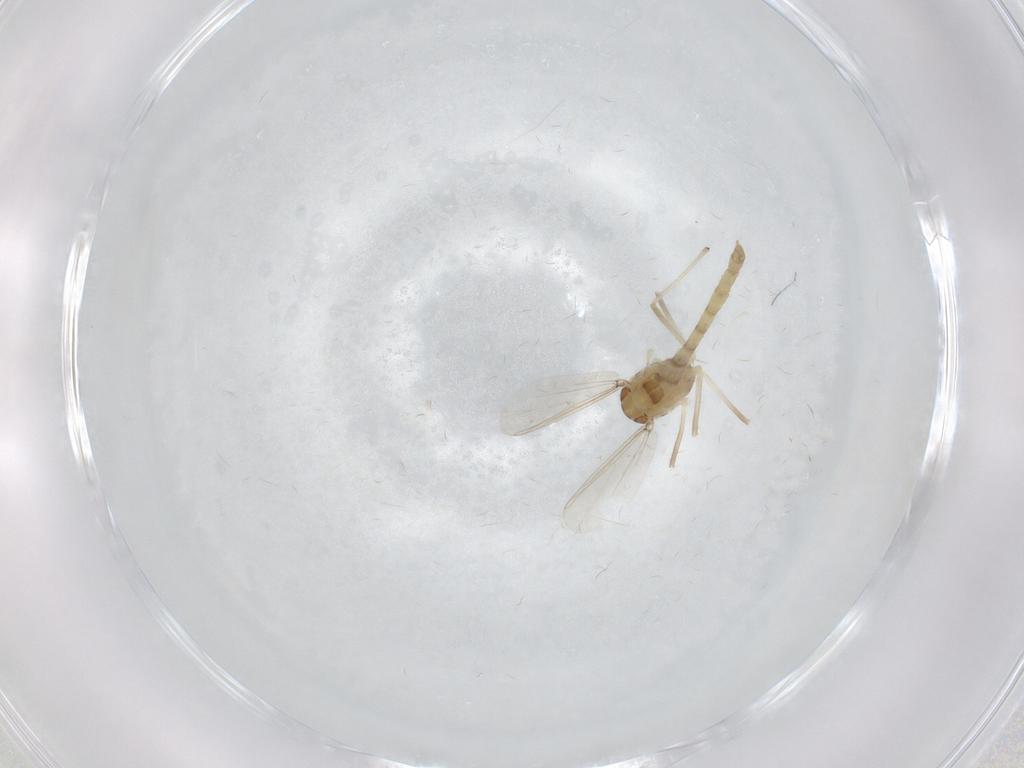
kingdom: Animalia
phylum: Arthropoda
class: Insecta
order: Diptera
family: Chironomidae
